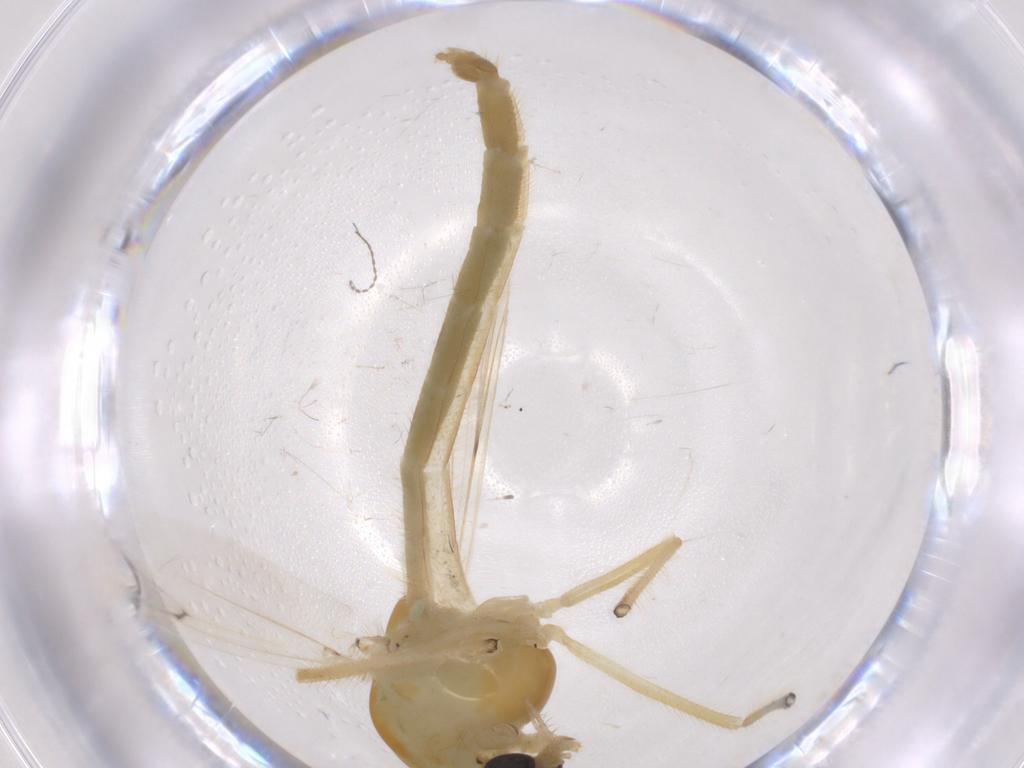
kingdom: Animalia
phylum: Arthropoda
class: Insecta
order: Diptera
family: Chironomidae
